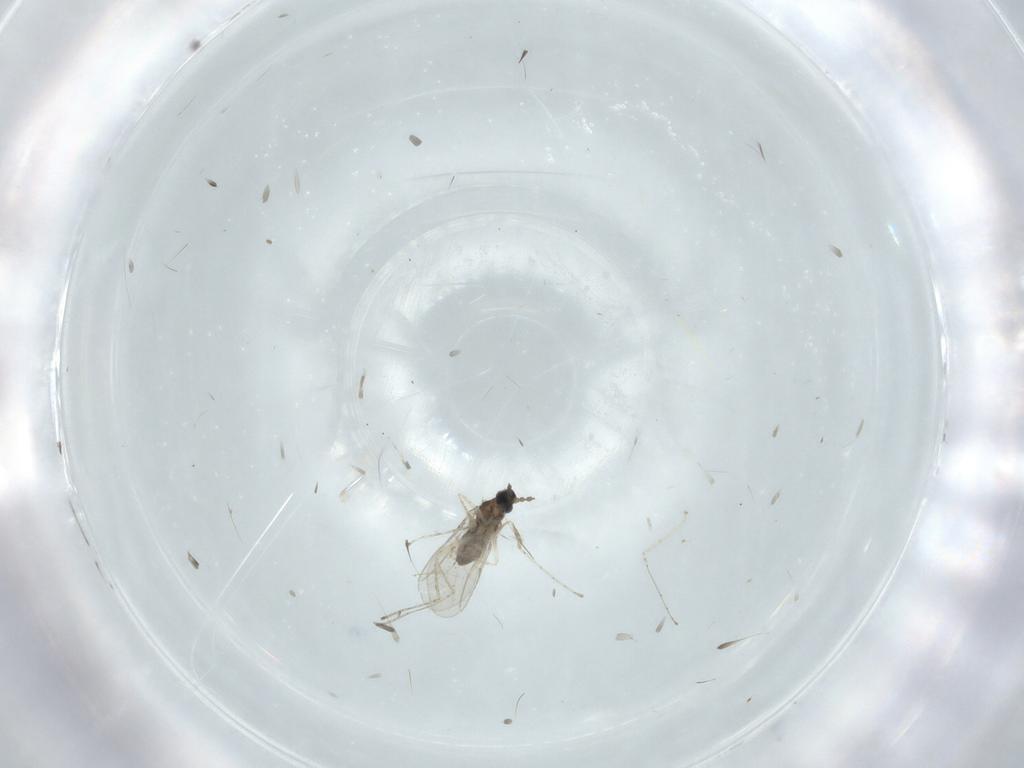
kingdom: Animalia
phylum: Arthropoda
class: Insecta
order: Diptera
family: Cecidomyiidae
